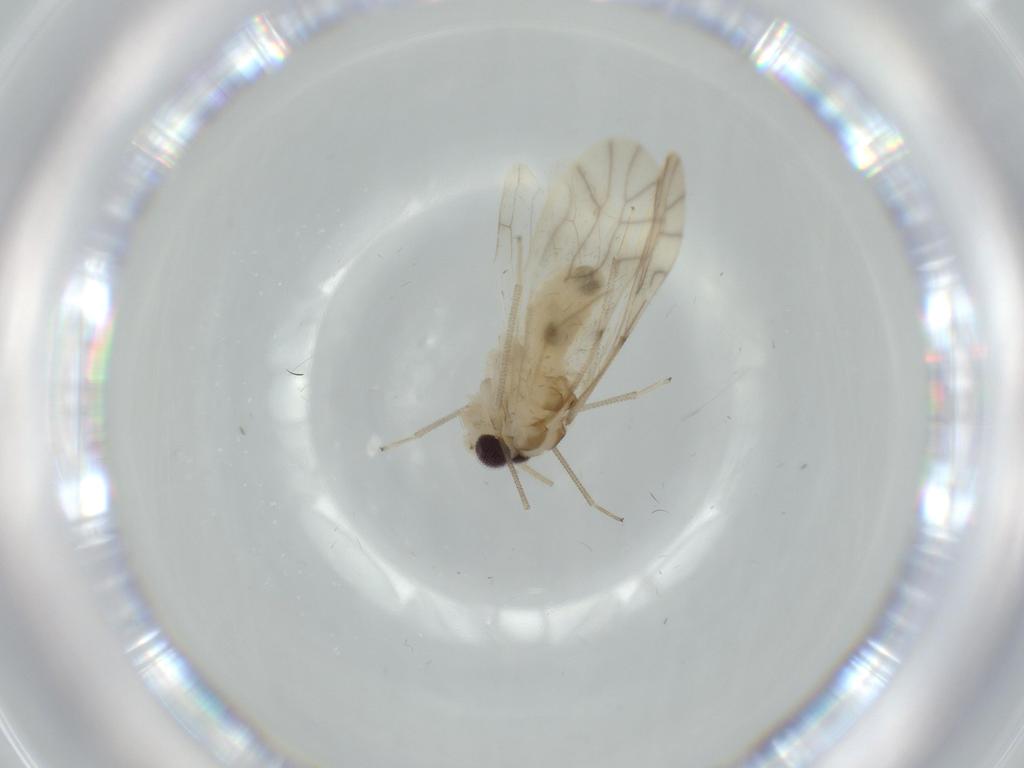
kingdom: Animalia
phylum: Arthropoda
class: Insecta
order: Psocodea
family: Caeciliusidae
